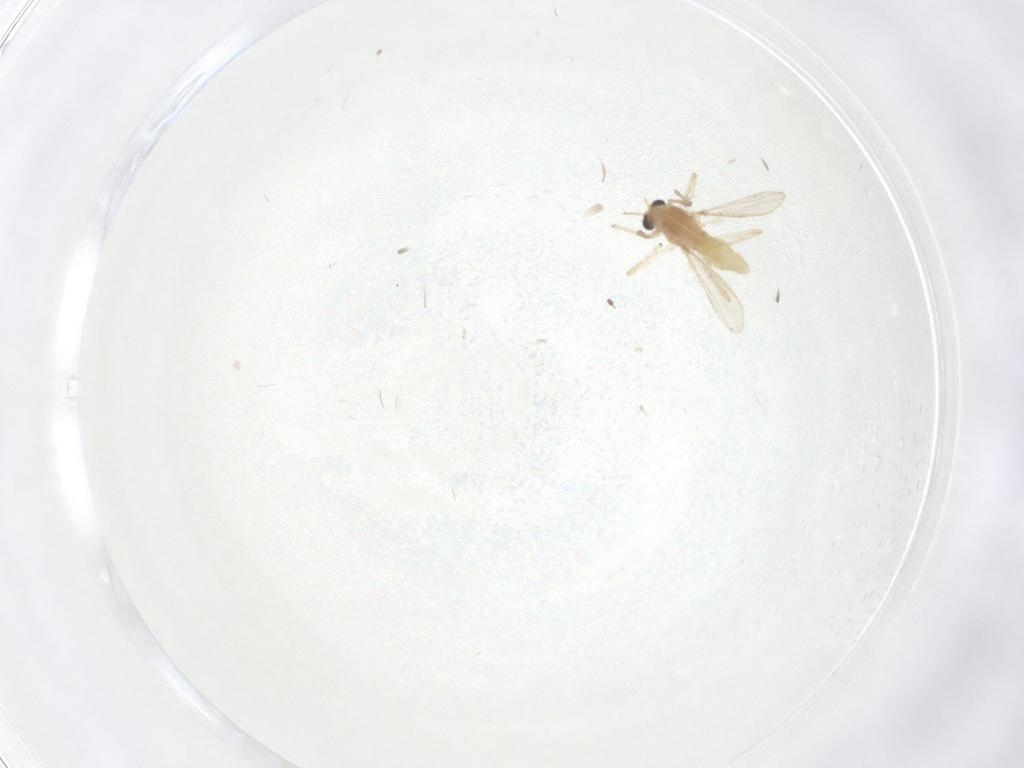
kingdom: Animalia
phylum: Arthropoda
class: Insecta
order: Diptera
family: Chironomidae
